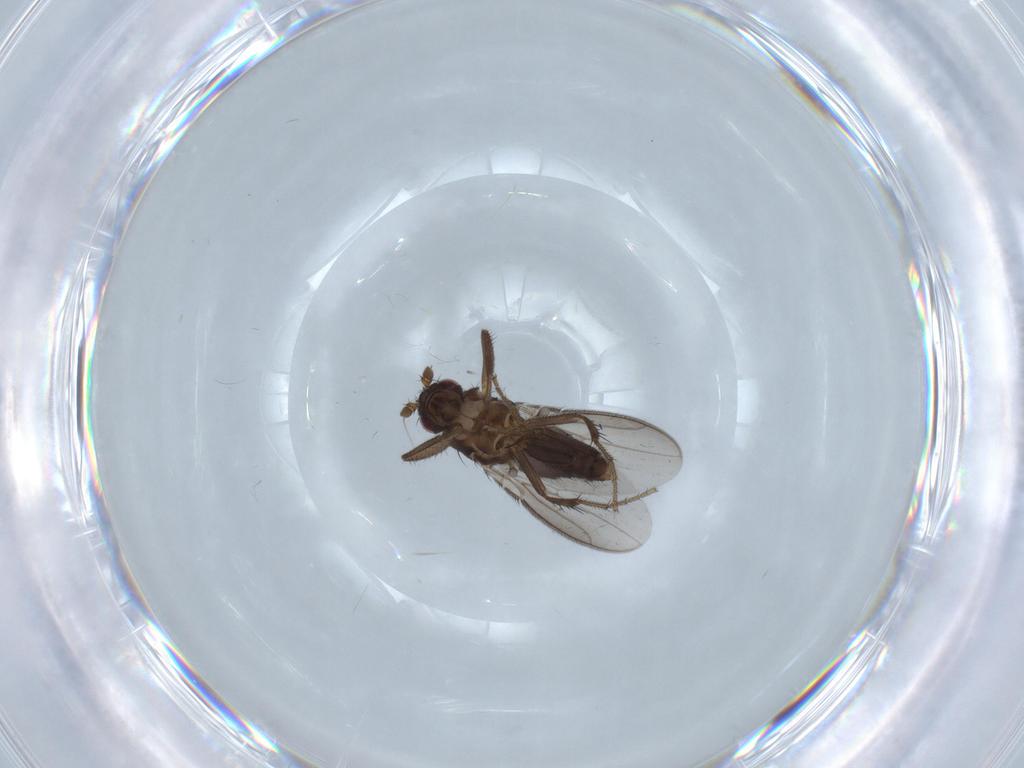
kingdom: Animalia
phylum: Arthropoda
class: Insecta
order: Diptera
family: Sphaeroceridae
